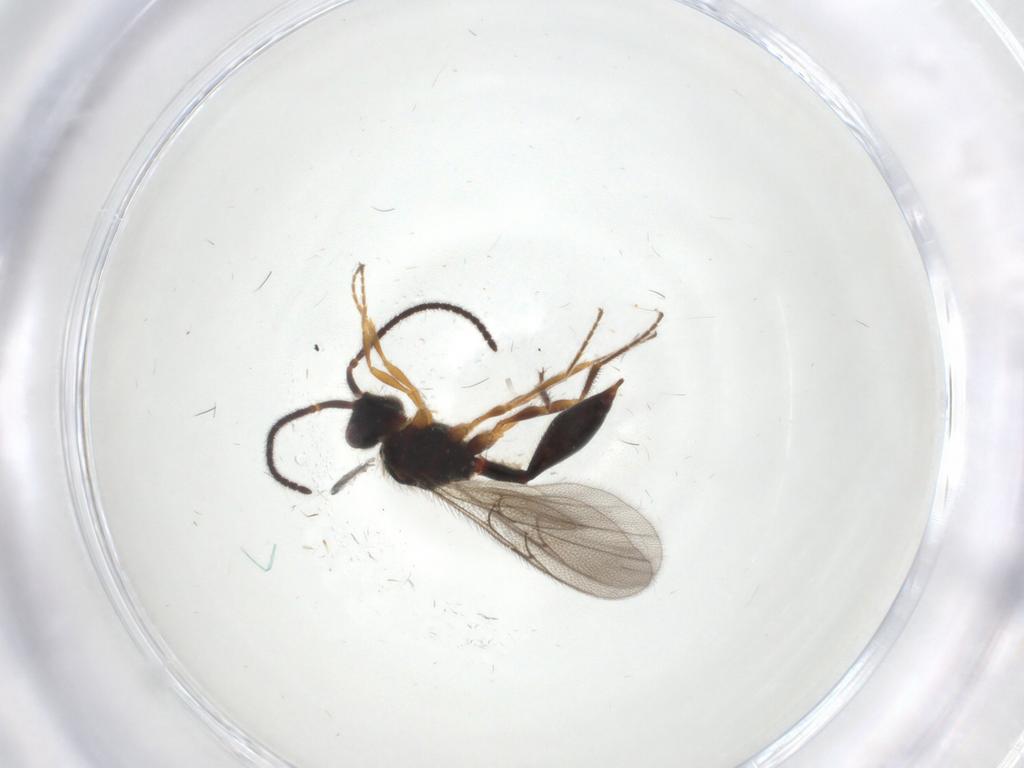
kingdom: Animalia
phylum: Arthropoda
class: Insecta
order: Hymenoptera
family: Diapriidae
